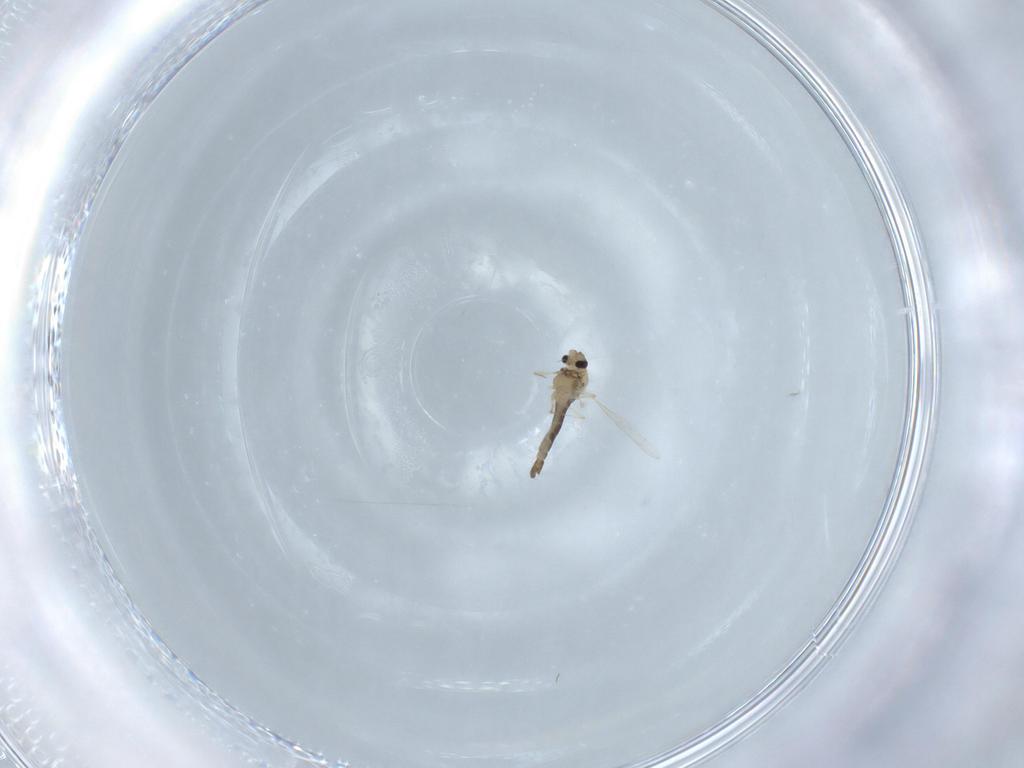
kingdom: Animalia
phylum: Arthropoda
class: Insecta
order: Diptera
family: Chironomidae
